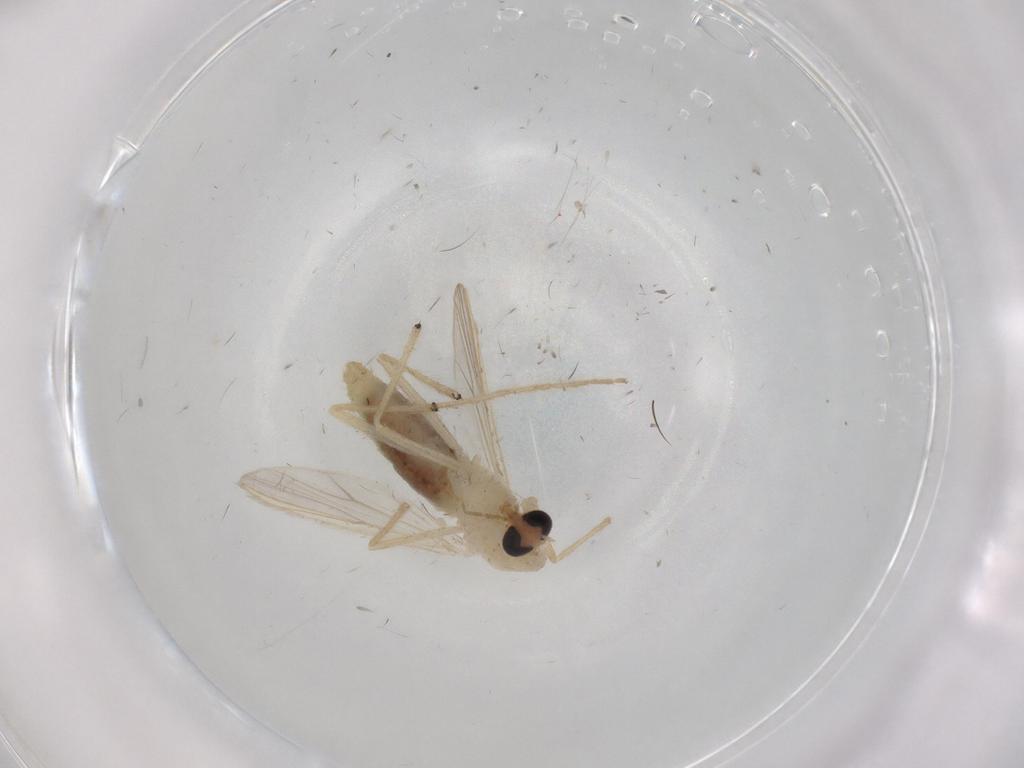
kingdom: Animalia
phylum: Arthropoda
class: Insecta
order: Diptera
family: Chironomidae
